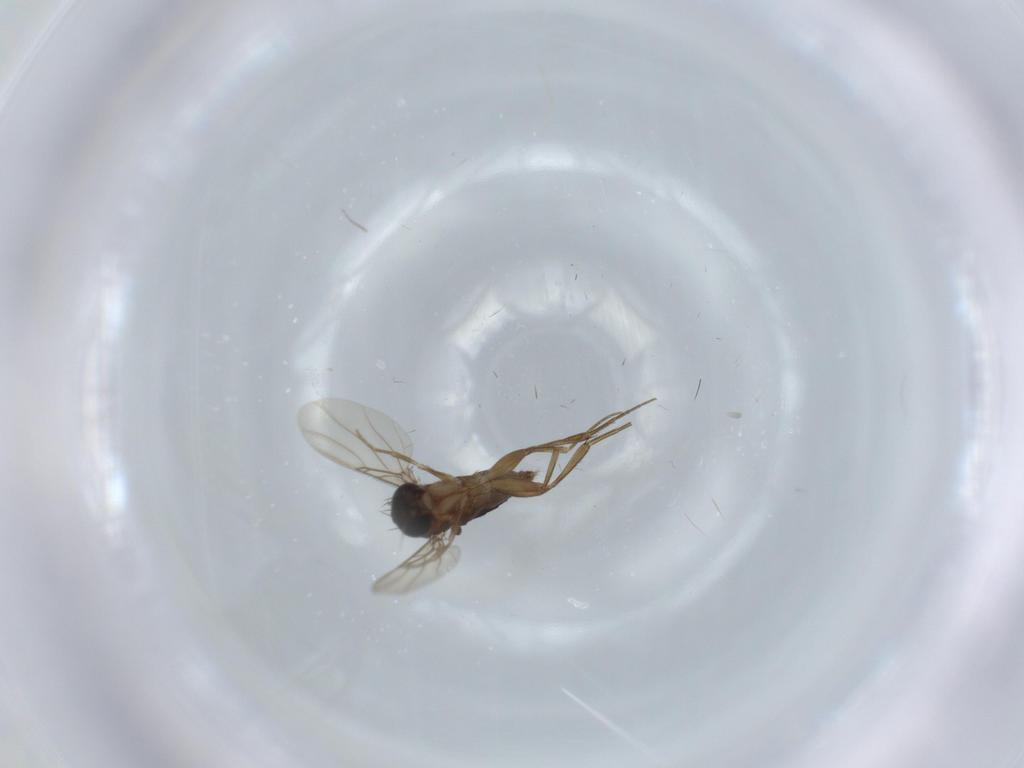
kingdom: Animalia
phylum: Arthropoda
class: Insecta
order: Diptera
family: Phoridae
